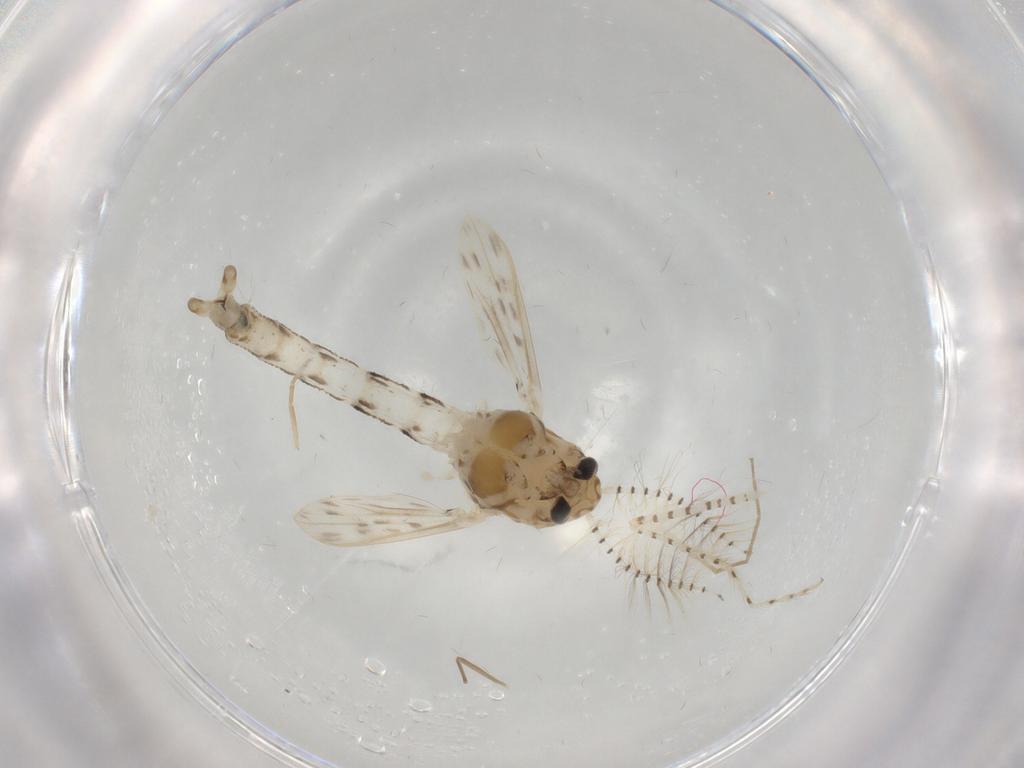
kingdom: Animalia
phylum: Arthropoda
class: Insecta
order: Diptera
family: Chaoboridae
